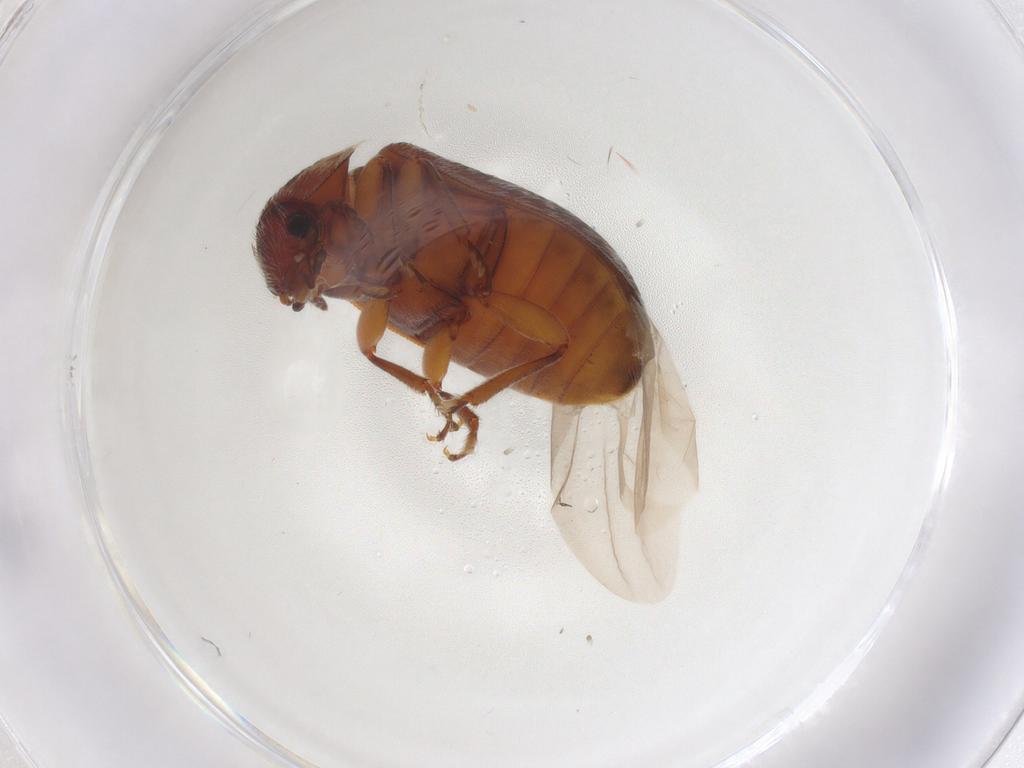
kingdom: Animalia
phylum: Arthropoda
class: Insecta
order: Coleoptera
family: Byturidae
